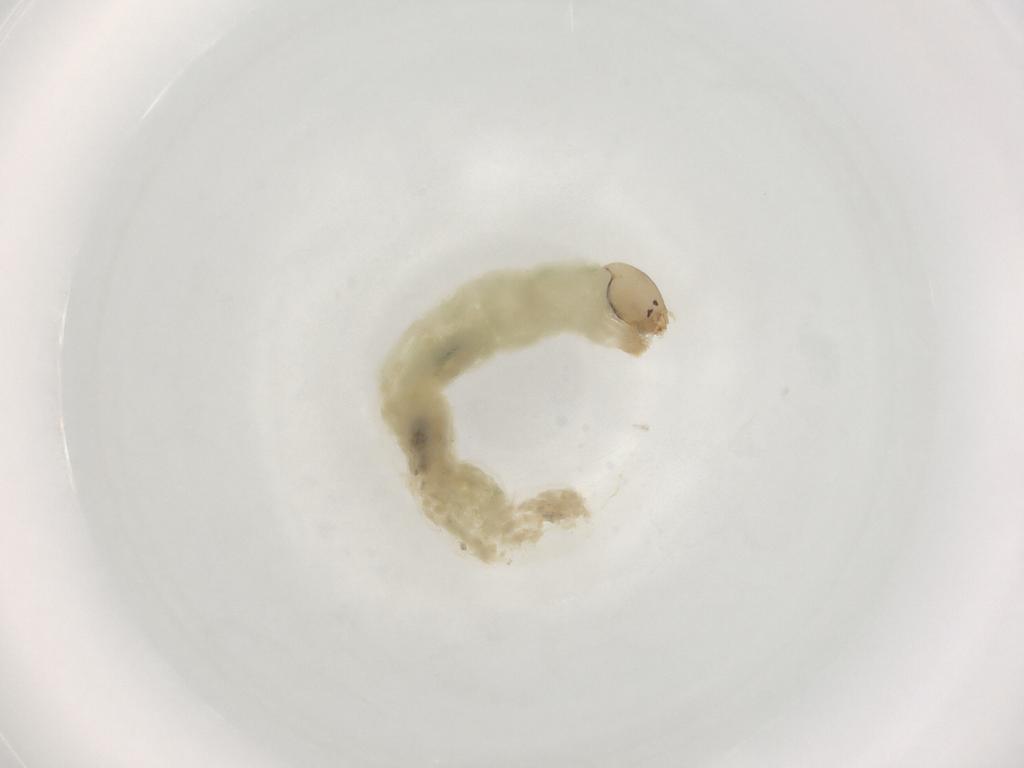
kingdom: Animalia
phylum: Arthropoda
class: Insecta
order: Diptera
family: Chironomidae
